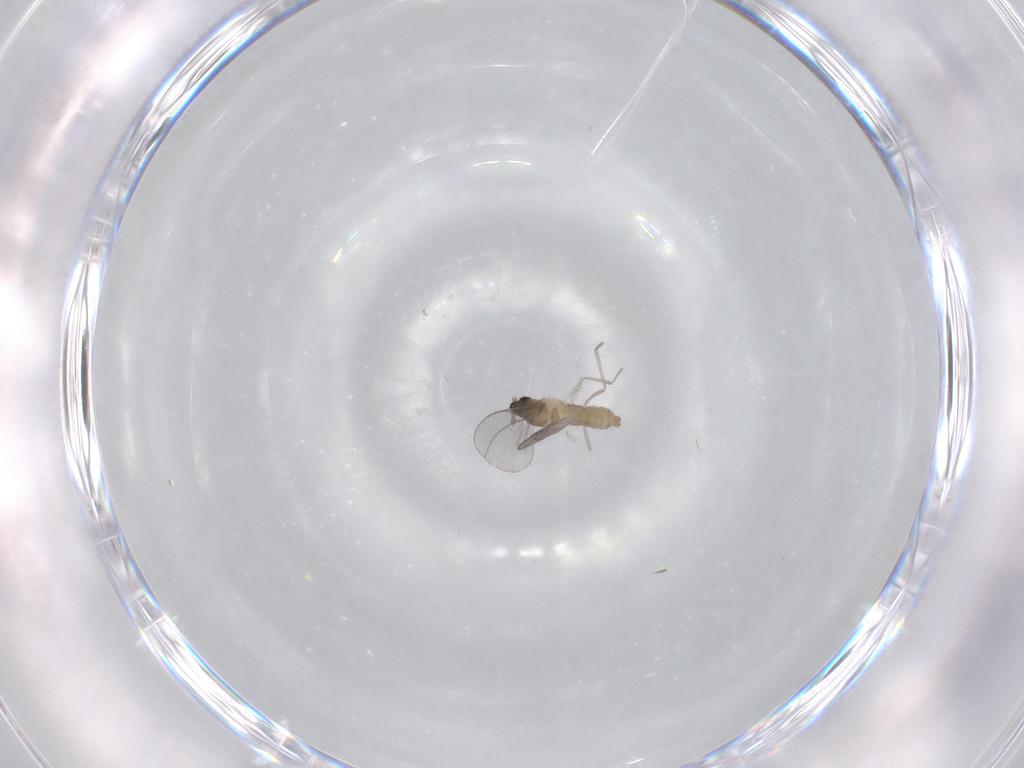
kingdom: Animalia
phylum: Arthropoda
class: Insecta
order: Diptera
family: Cecidomyiidae
